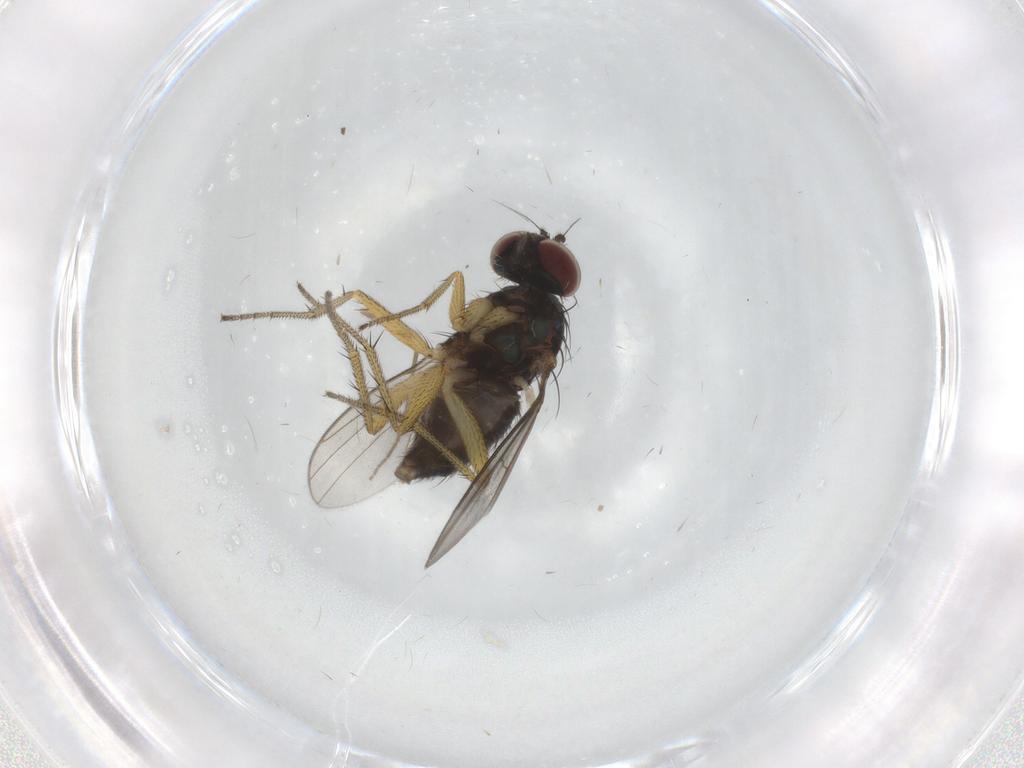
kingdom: Animalia
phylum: Arthropoda
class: Insecta
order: Diptera
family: Dolichopodidae
